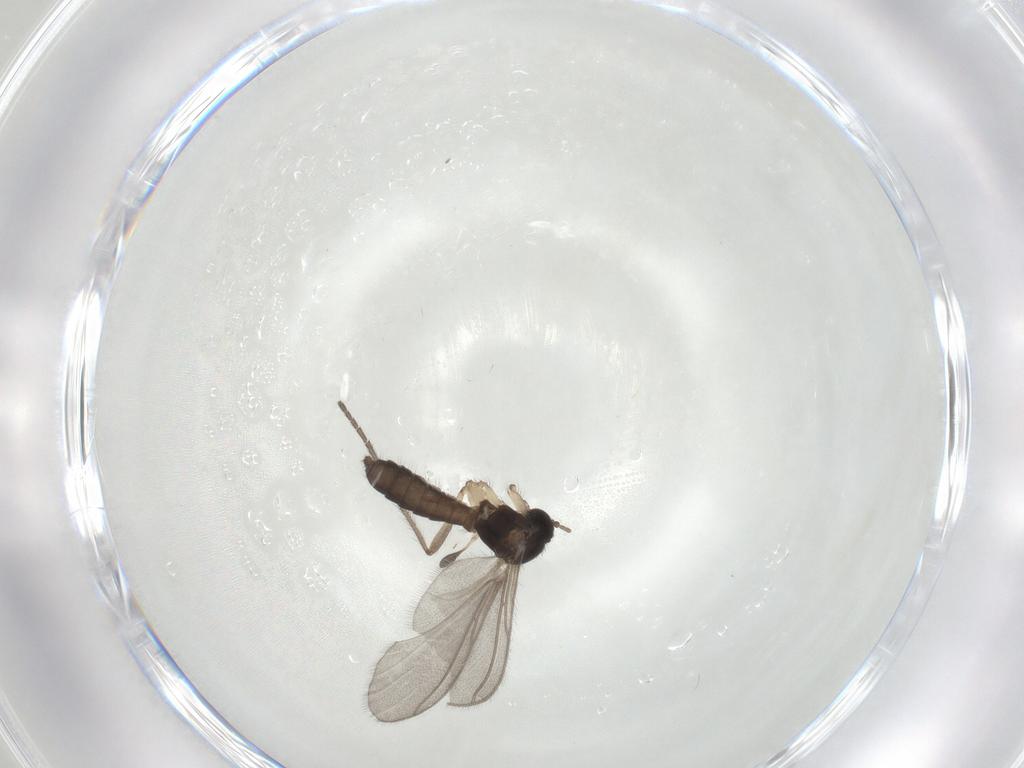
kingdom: Animalia
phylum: Arthropoda
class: Insecta
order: Diptera
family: Mycetophilidae
